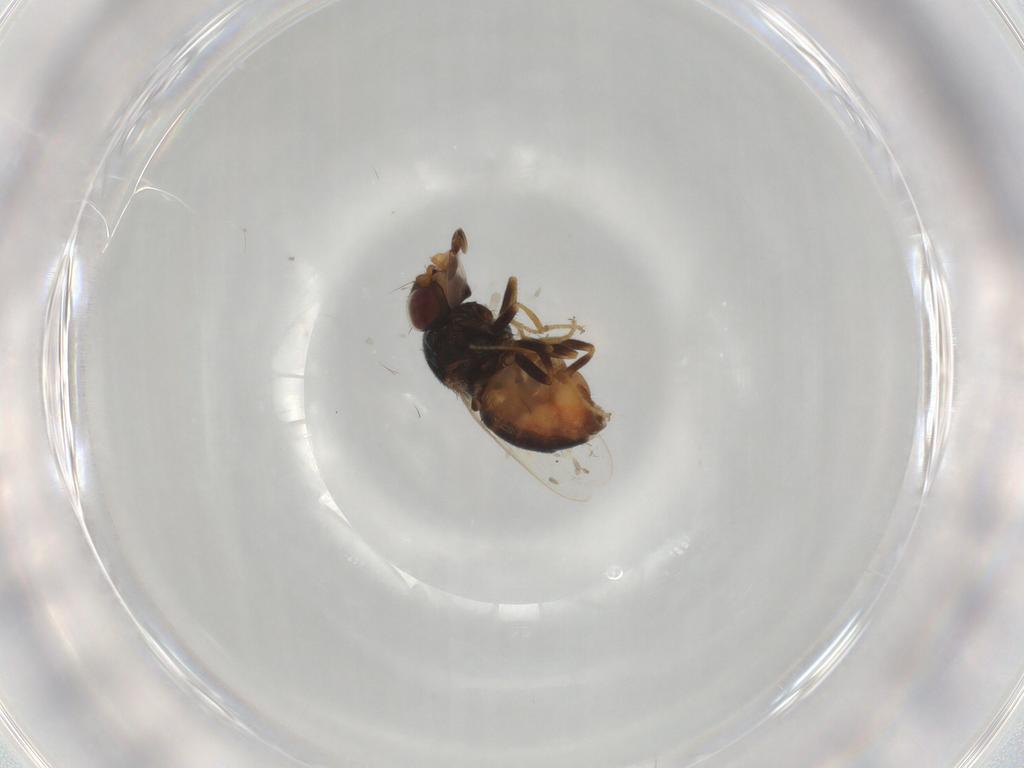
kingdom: Animalia
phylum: Arthropoda
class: Insecta
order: Diptera
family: Chloropidae
